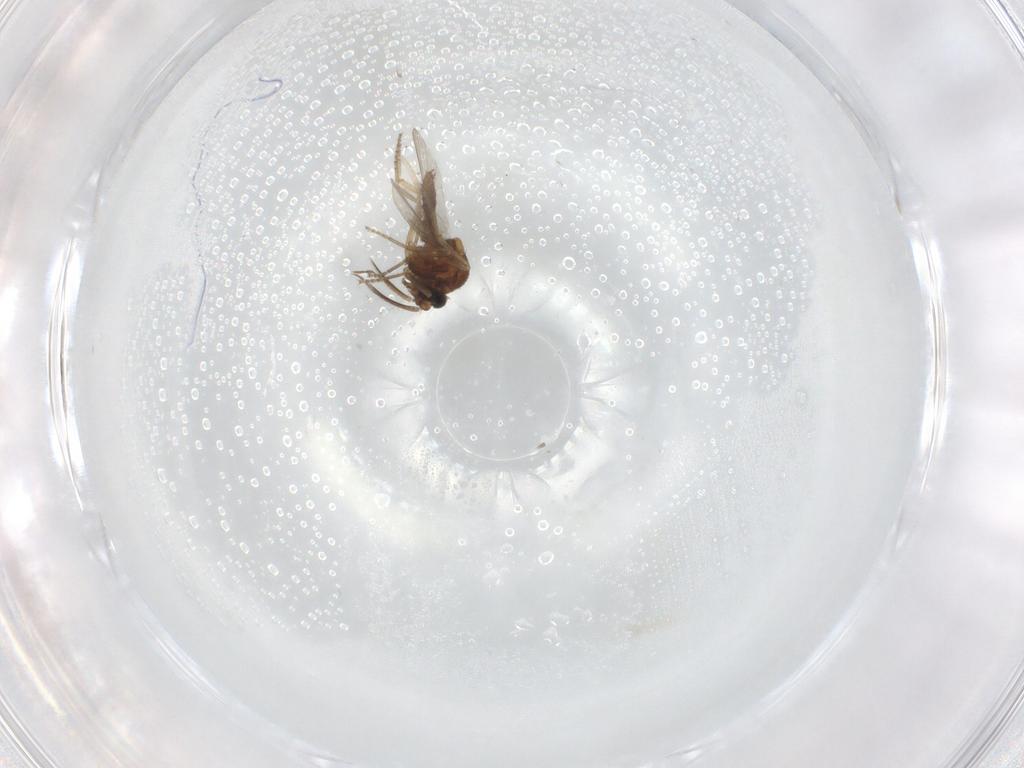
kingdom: Animalia
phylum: Arthropoda
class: Insecta
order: Diptera
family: Ceratopogonidae
